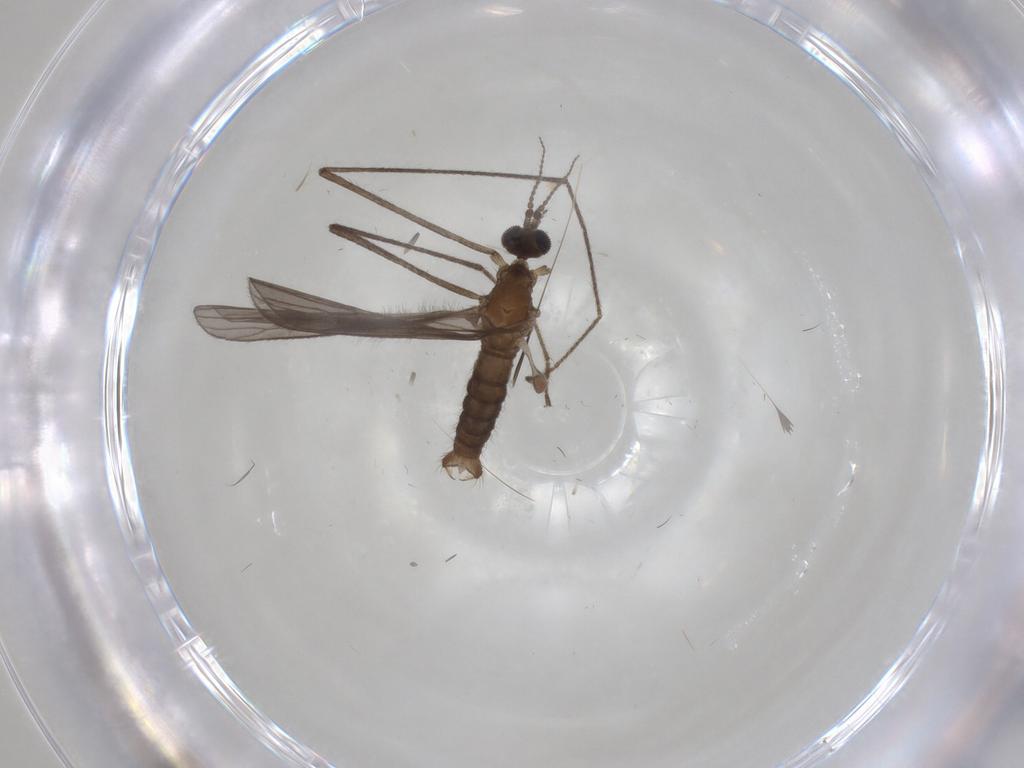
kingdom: Animalia
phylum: Arthropoda
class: Insecta
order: Diptera
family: Limoniidae
